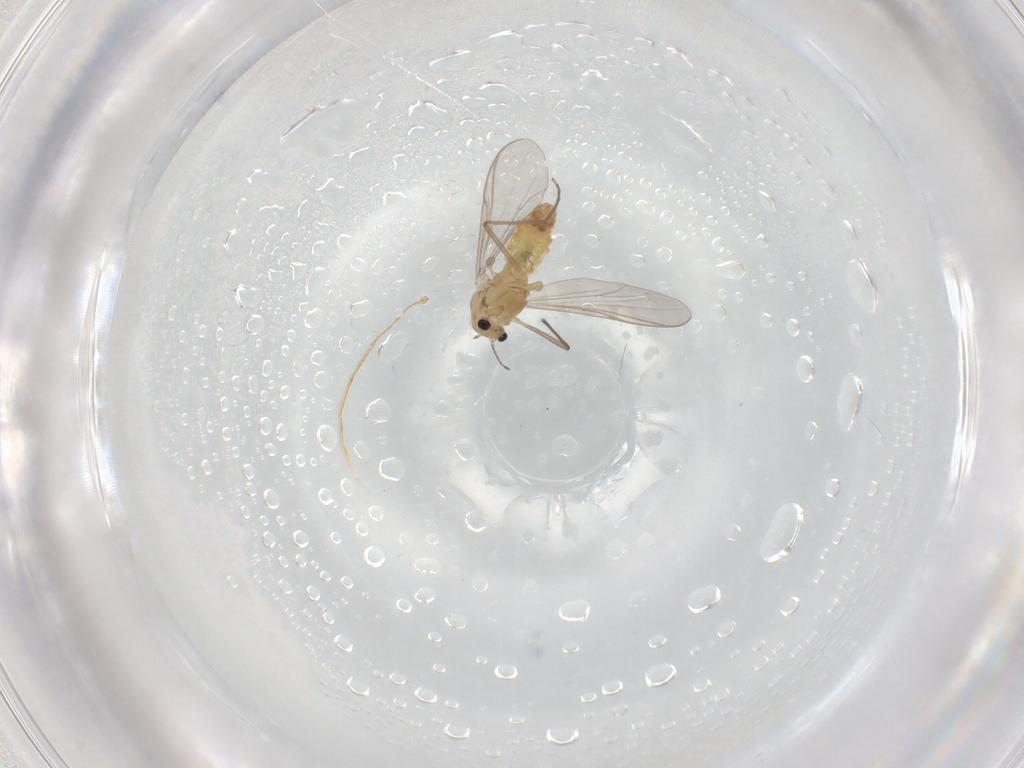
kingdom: Animalia
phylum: Arthropoda
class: Insecta
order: Diptera
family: Chironomidae
